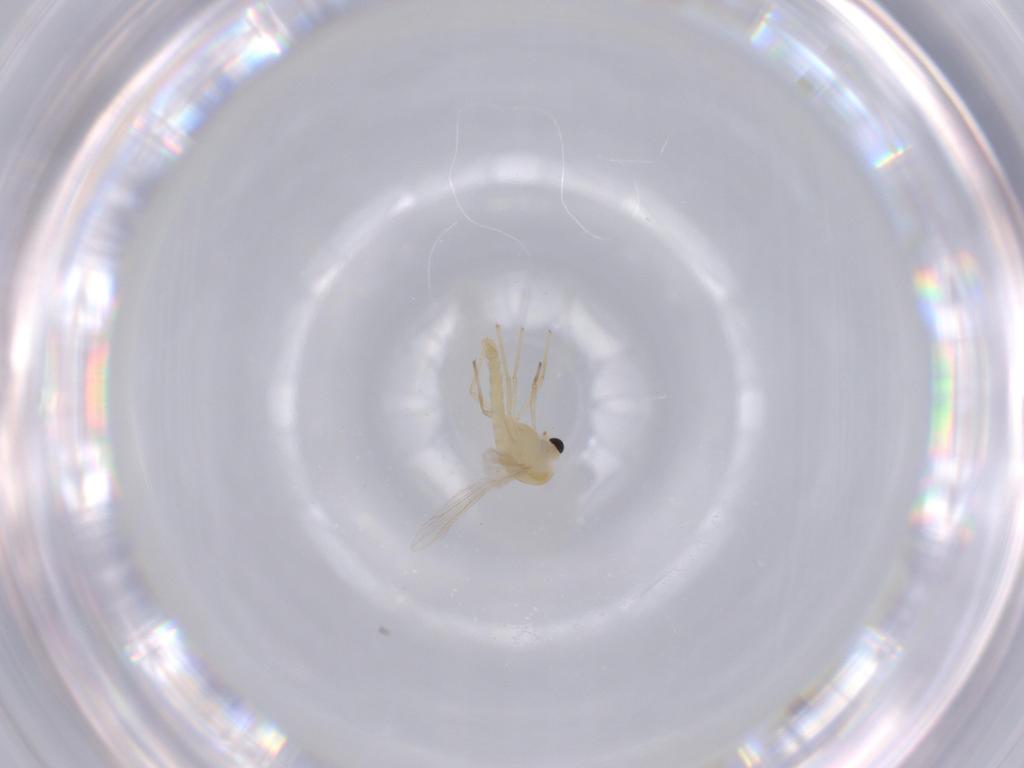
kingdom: Animalia
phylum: Arthropoda
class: Insecta
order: Diptera
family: Chironomidae
